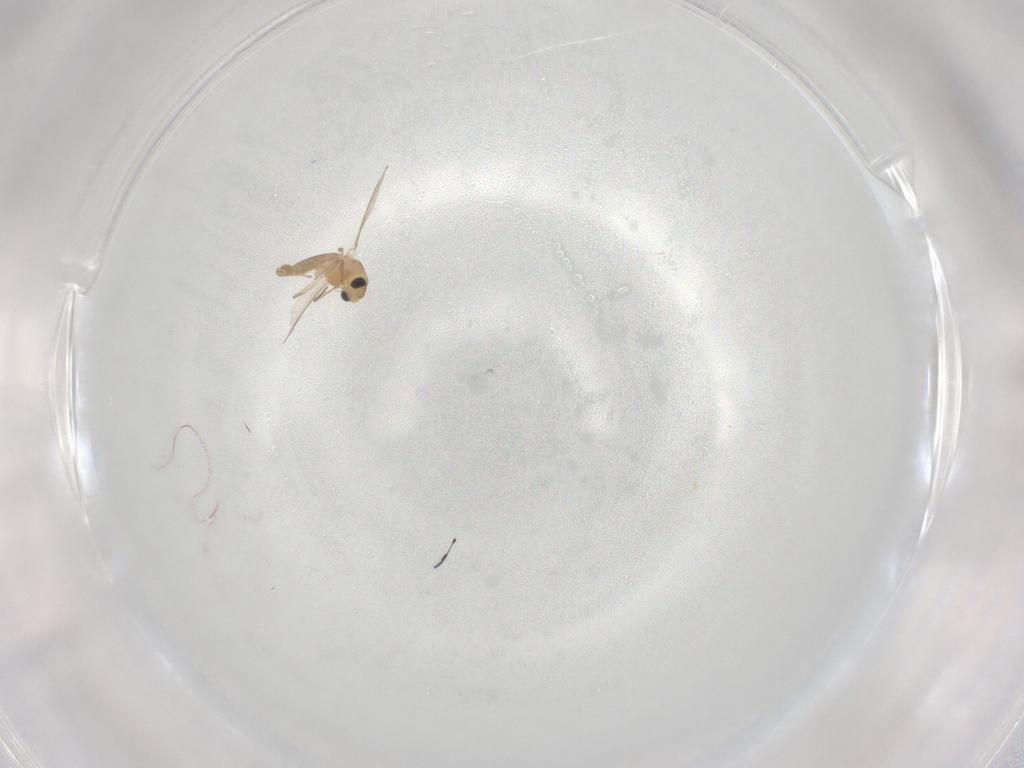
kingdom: Animalia
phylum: Arthropoda
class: Insecta
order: Diptera
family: Chironomidae
